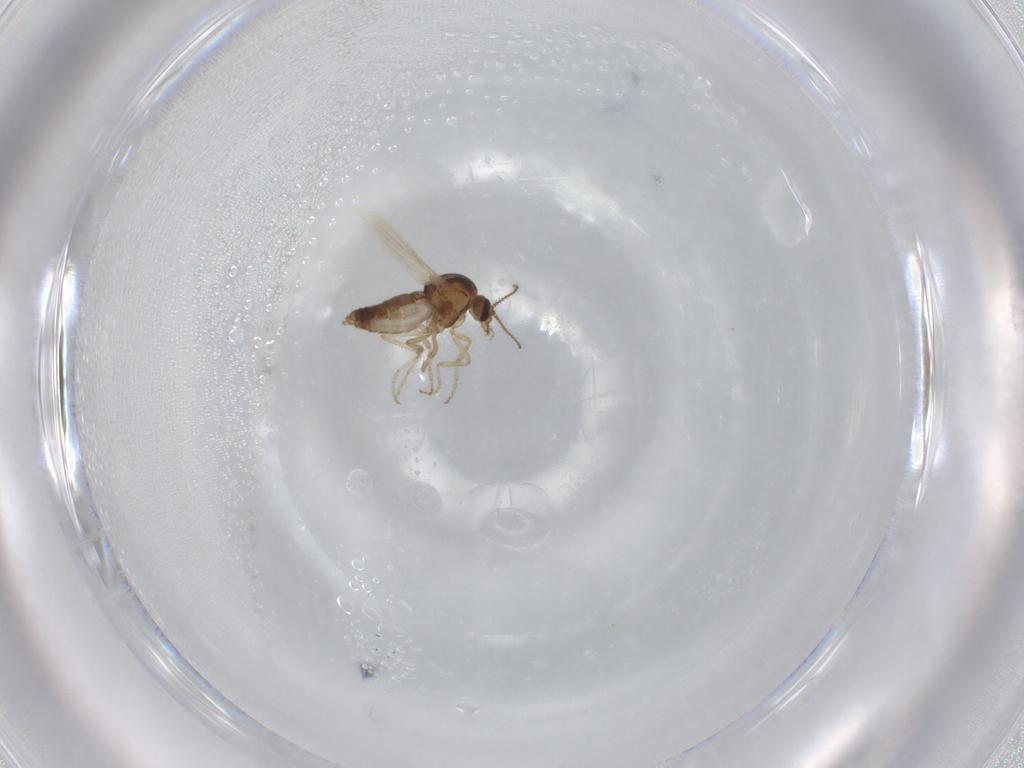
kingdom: Animalia
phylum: Arthropoda
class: Insecta
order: Diptera
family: Ceratopogonidae
